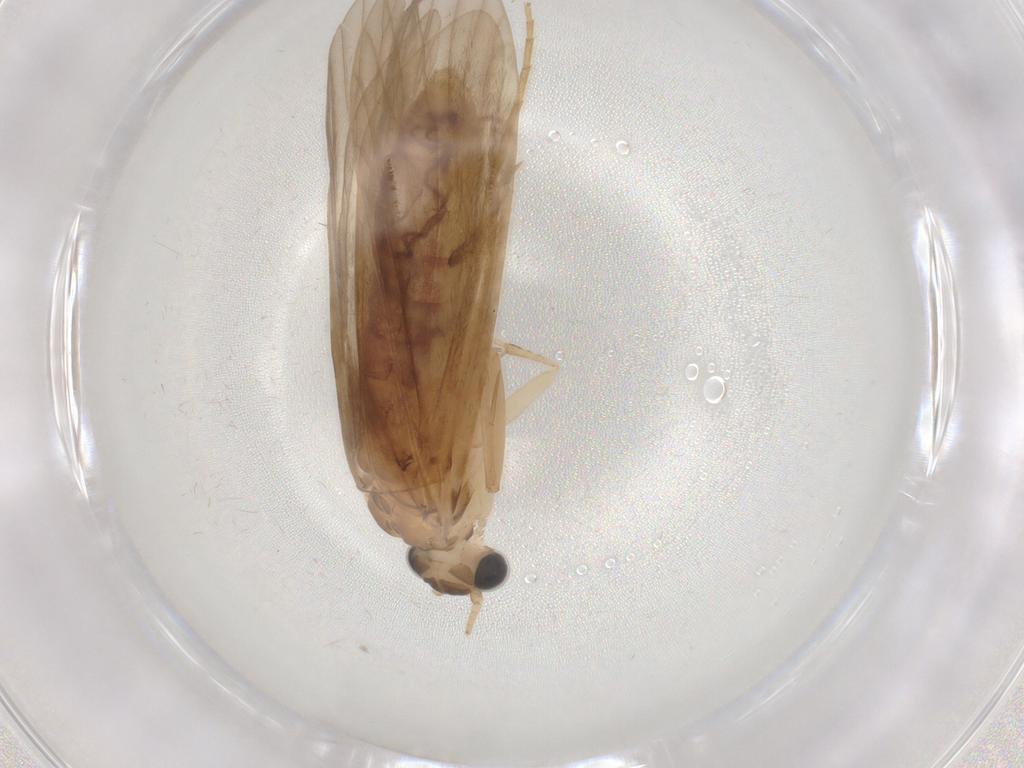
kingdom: Animalia
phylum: Arthropoda
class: Insecta
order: Trichoptera
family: Ecnomidae
